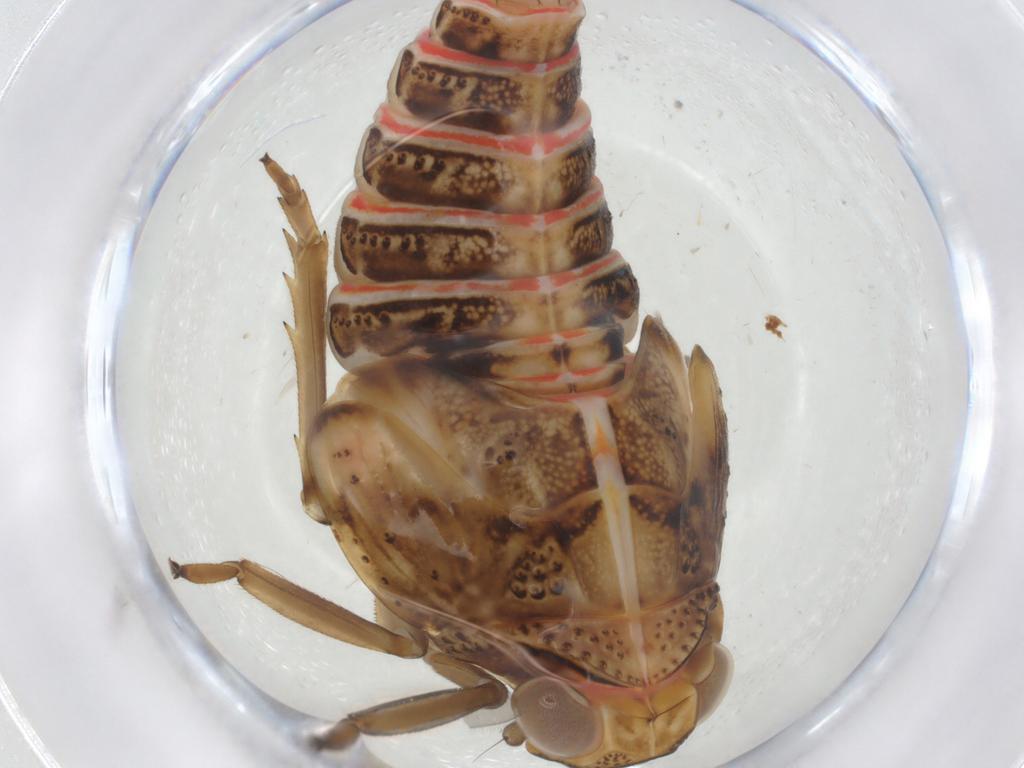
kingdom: Animalia
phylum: Arthropoda
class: Insecta
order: Hemiptera
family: Issidae
